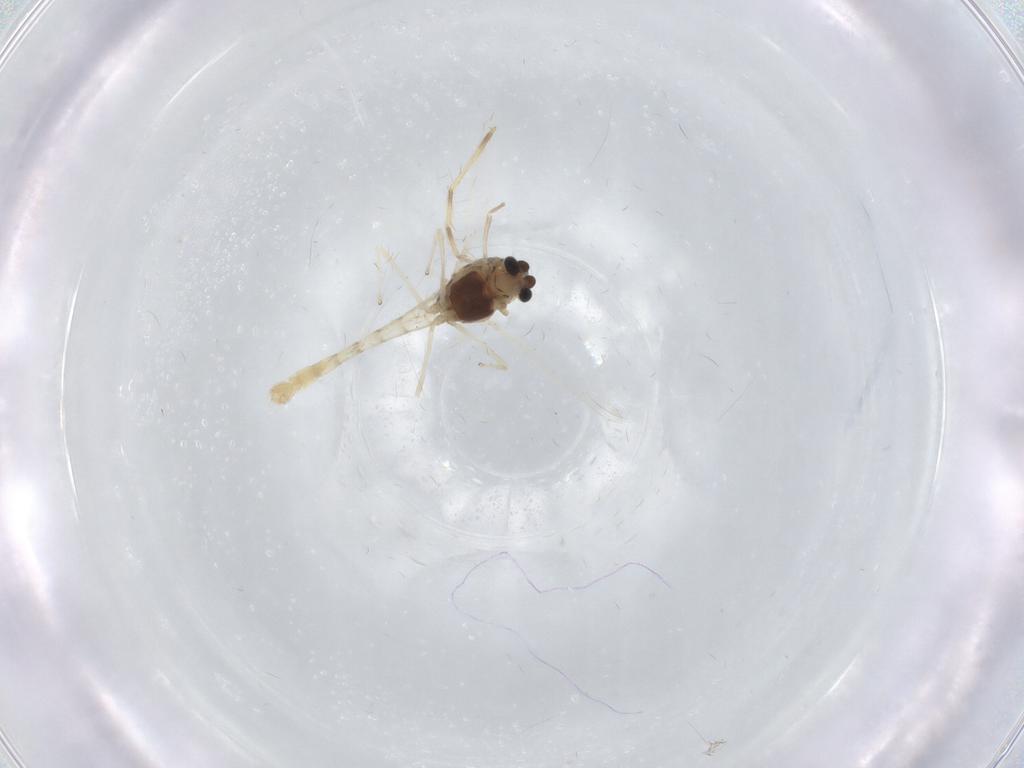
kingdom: Animalia
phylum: Arthropoda
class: Insecta
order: Diptera
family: Chironomidae
